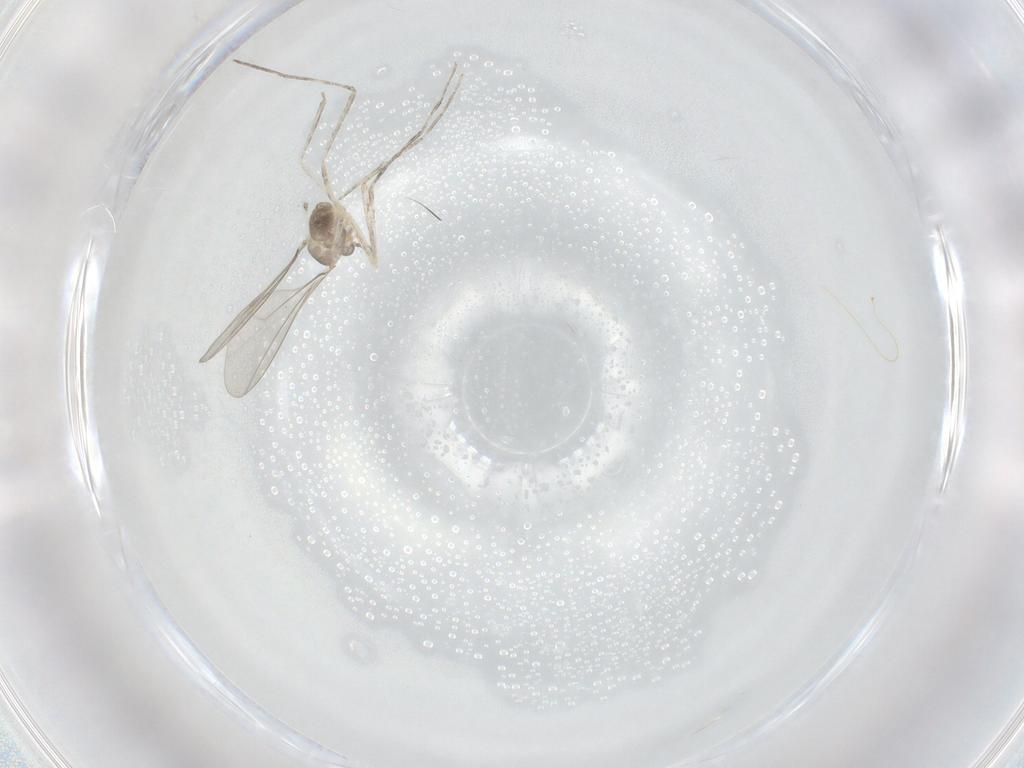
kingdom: Animalia
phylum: Arthropoda
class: Insecta
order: Diptera
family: Cecidomyiidae
